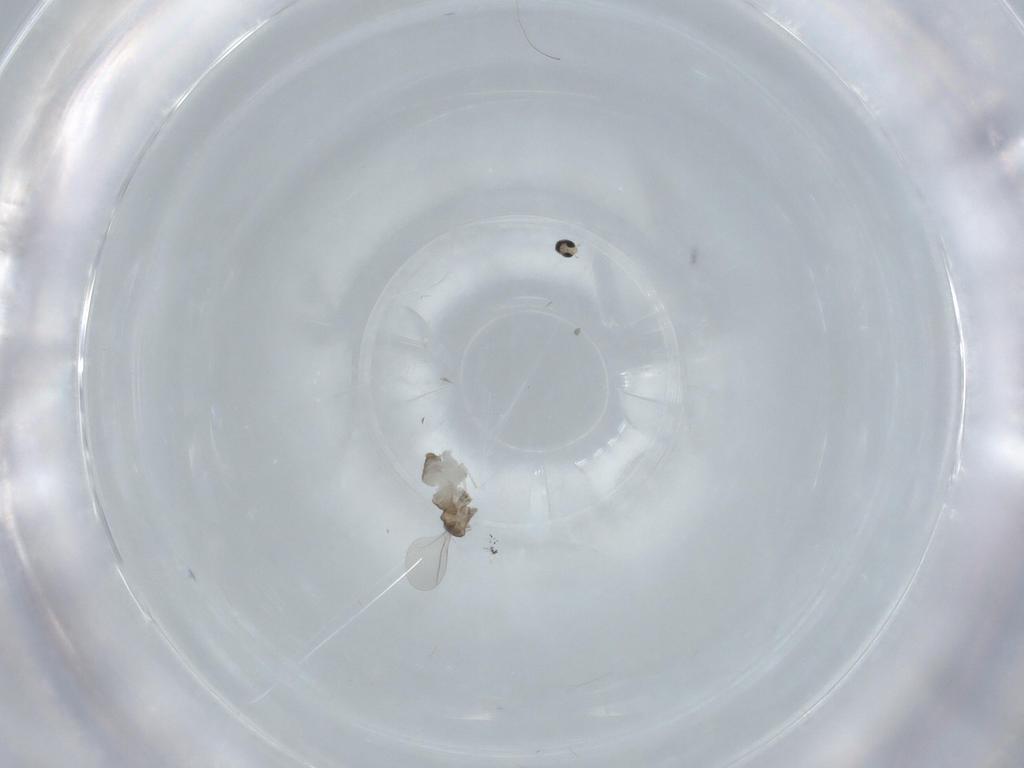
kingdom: Animalia
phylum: Arthropoda
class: Insecta
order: Diptera
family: Cecidomyiidae
